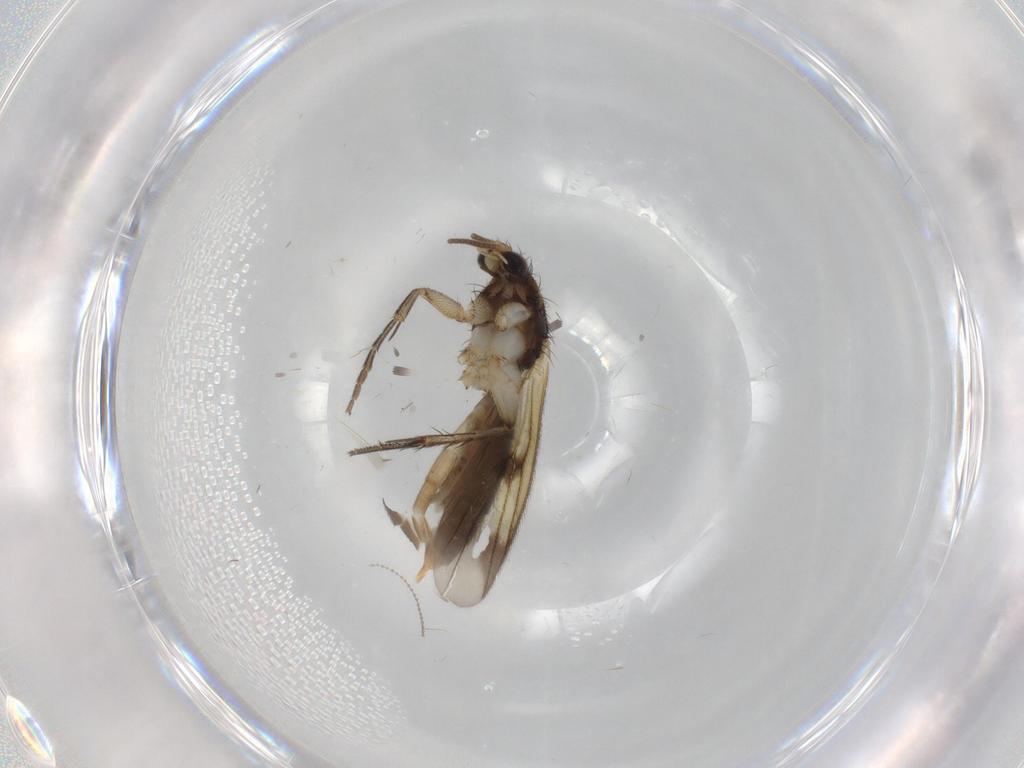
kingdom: Animalia
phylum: Arthropoda
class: Insecta
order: Diptera
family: Mycetophilidae
